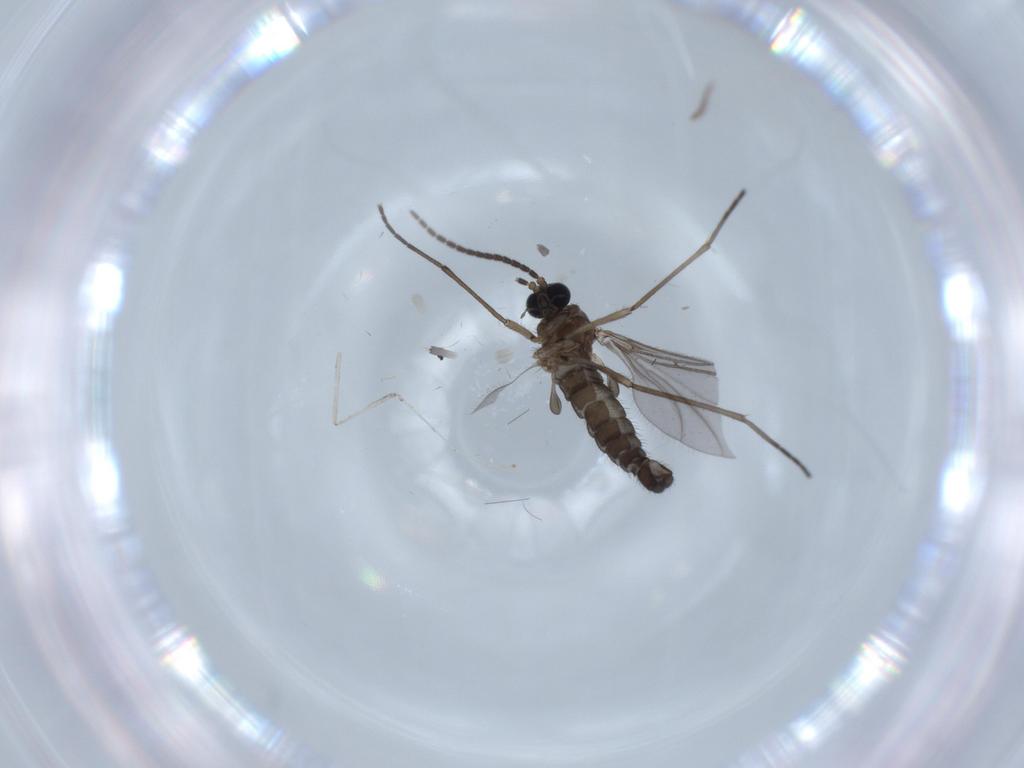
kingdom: Animalia
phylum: Arthropoda
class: Insecta
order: Diptera
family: Sciaridae
